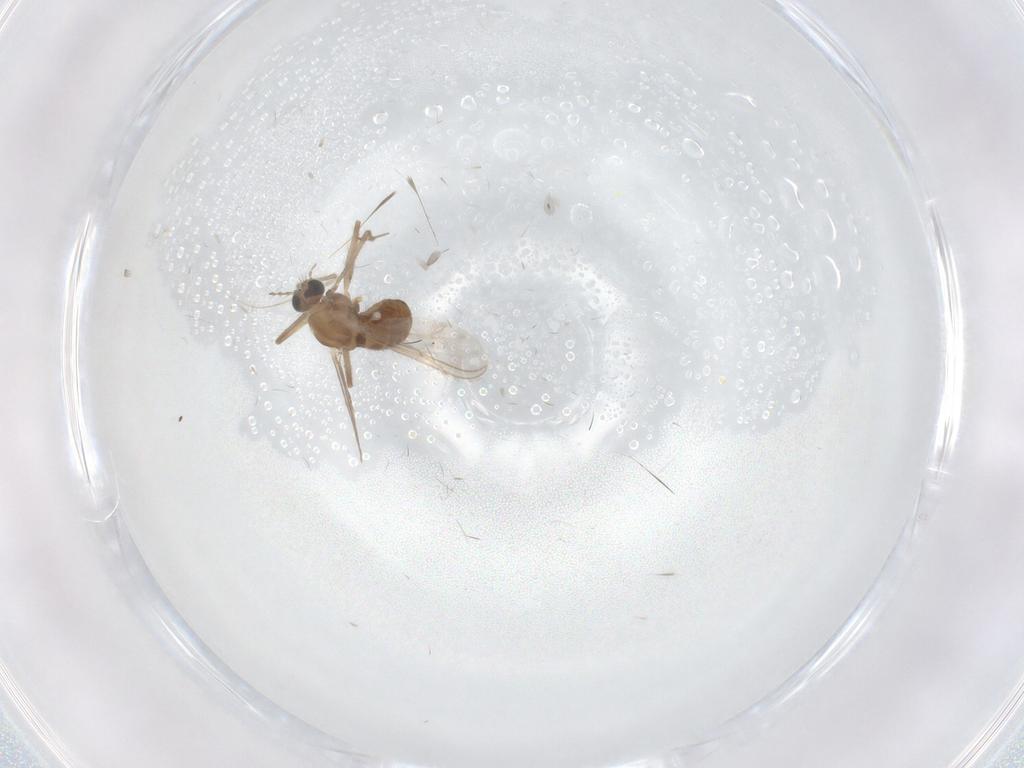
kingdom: Animalia
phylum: Arthropoda
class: Insecta
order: Diptera
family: Chironomidae
